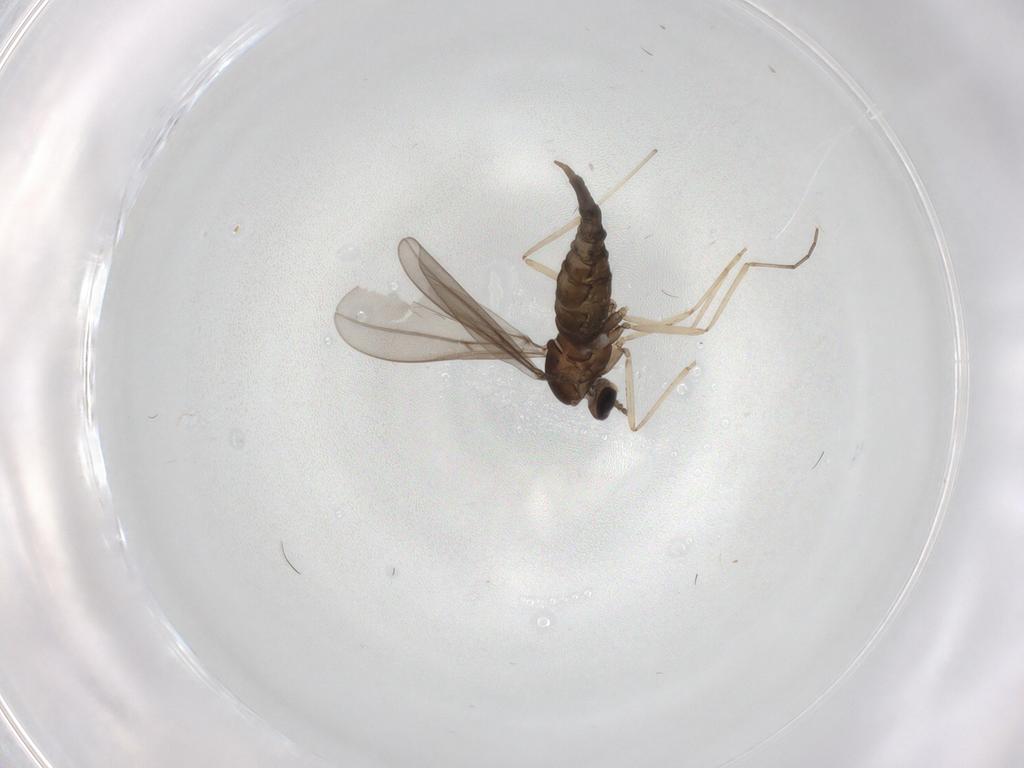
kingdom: Animalia
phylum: Arthropoda
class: Insecta
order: Diptera
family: Cecidomyiidae
